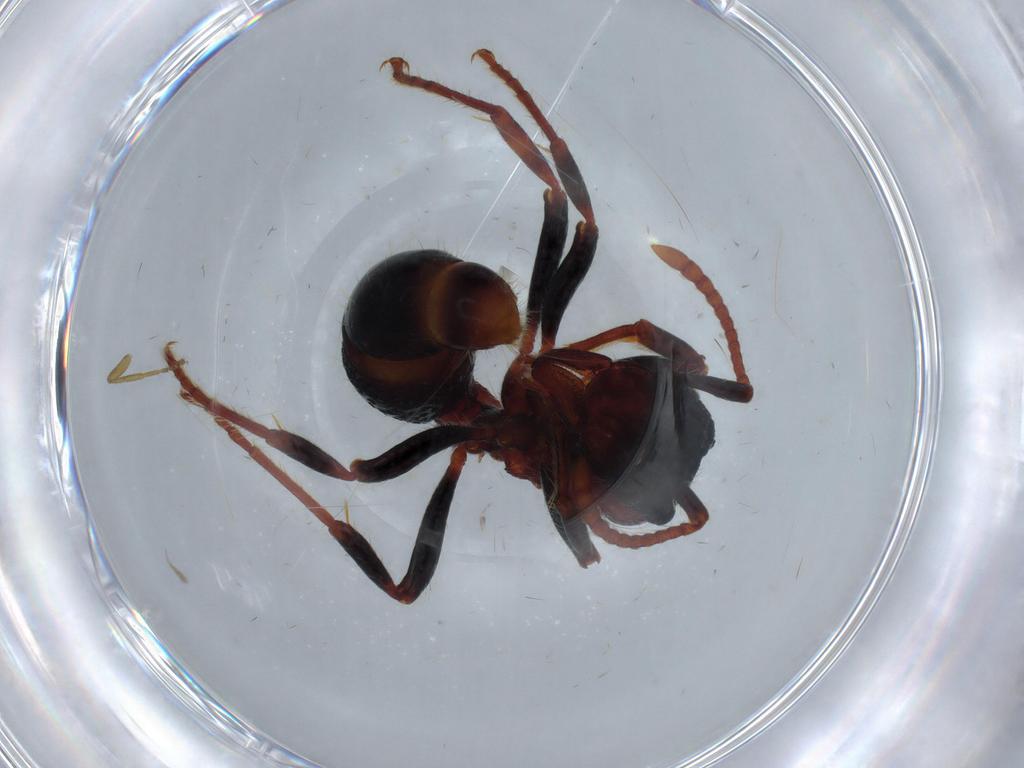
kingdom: Animalia
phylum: Arthropoda
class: Insecta
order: Hymenoptera
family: Formicidae
